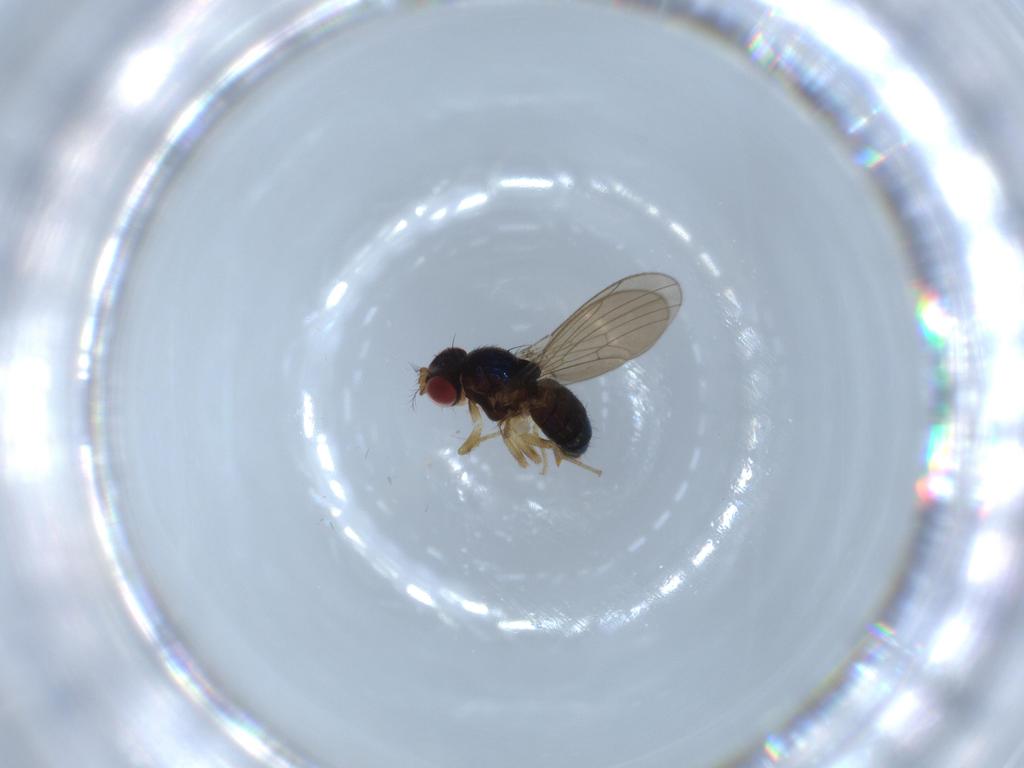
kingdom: Animalia
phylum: Arthropoda
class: Insecta
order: Diptera
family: Drosophilidae
